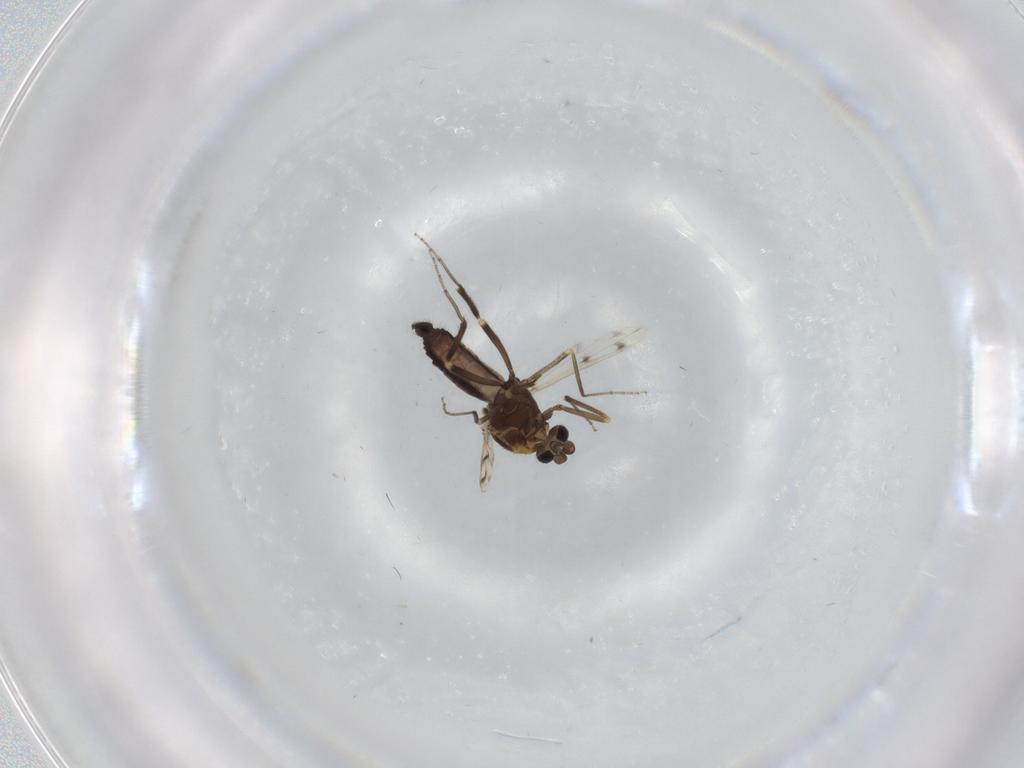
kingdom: Animalia
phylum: Arthropoda
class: Insecta
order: Diptera
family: Ceratopogonidae
